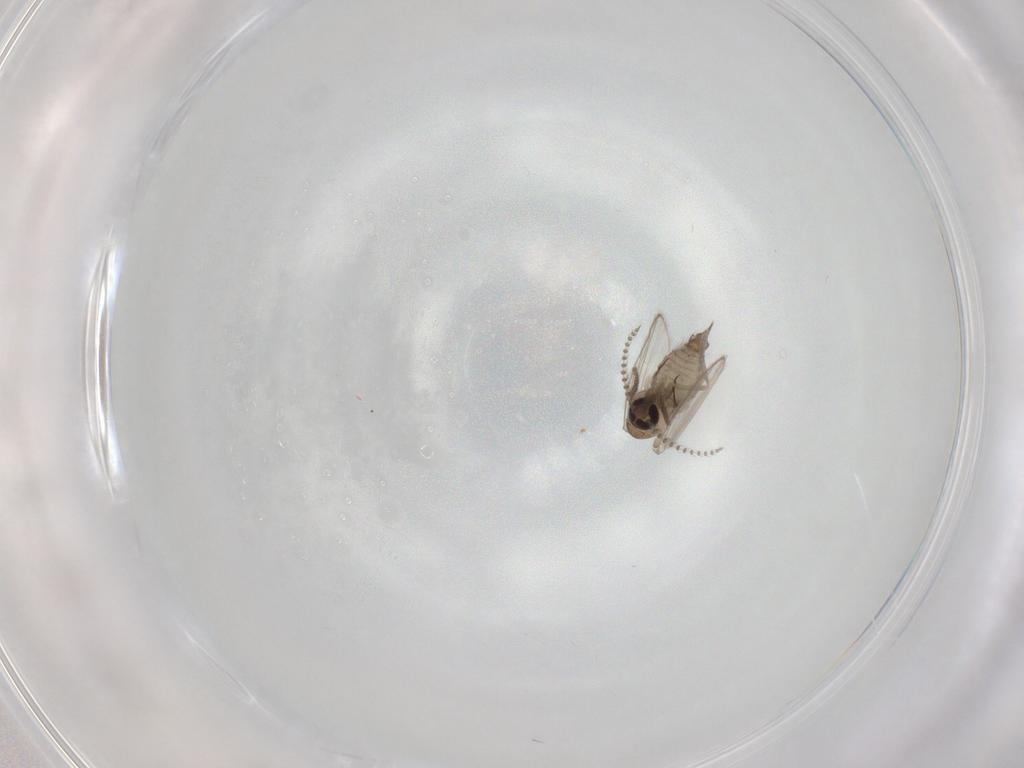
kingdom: Animalia
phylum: Arthropoda
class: Insecta
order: Diptera
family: Psychodidae
